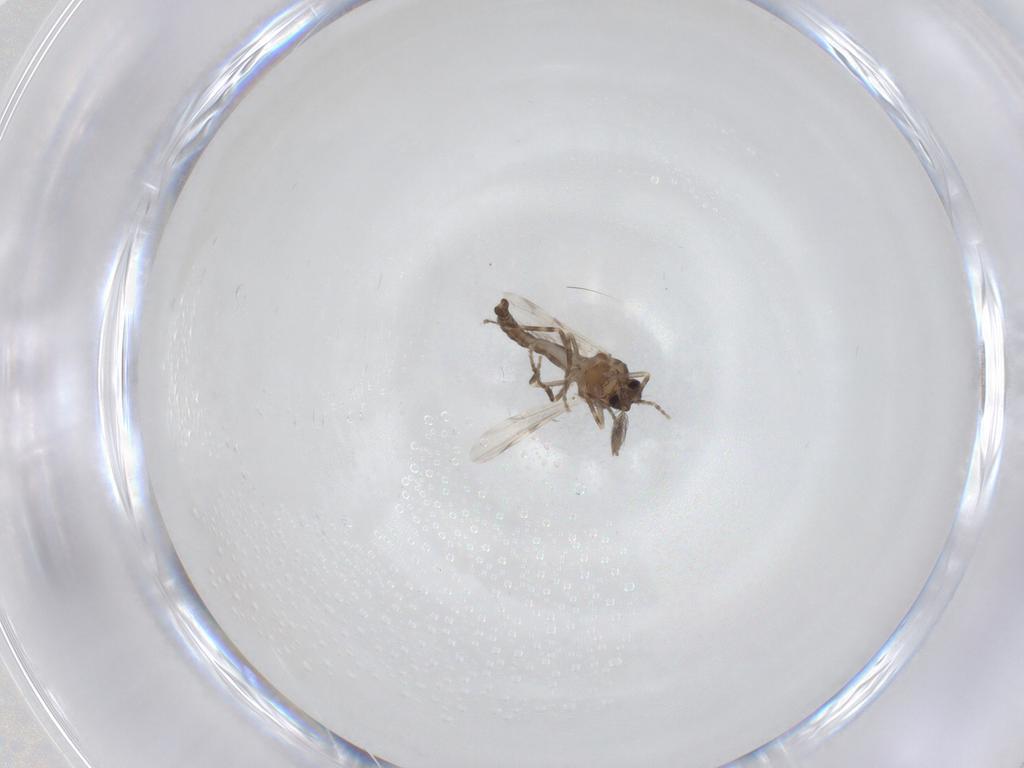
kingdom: Animalia
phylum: Arthropoda
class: Insecta
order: Diptera
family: Ceratopogonidae
